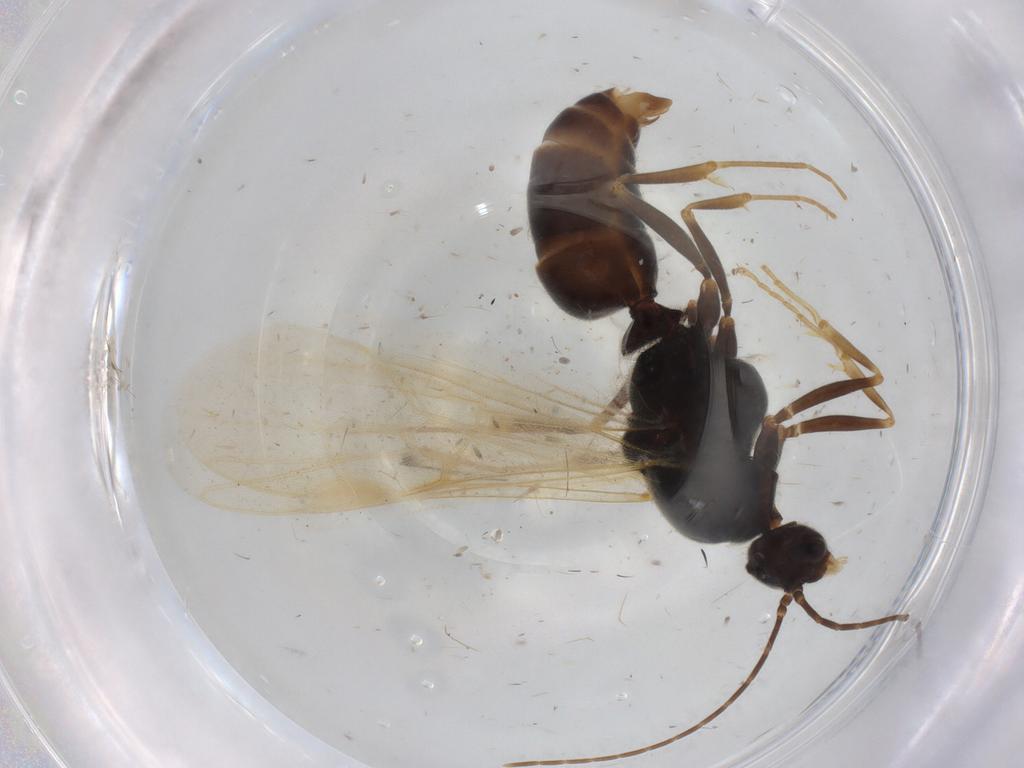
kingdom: Animalia
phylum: Arthropoda
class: Insecta
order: Hymenoptera
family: Formicidae
